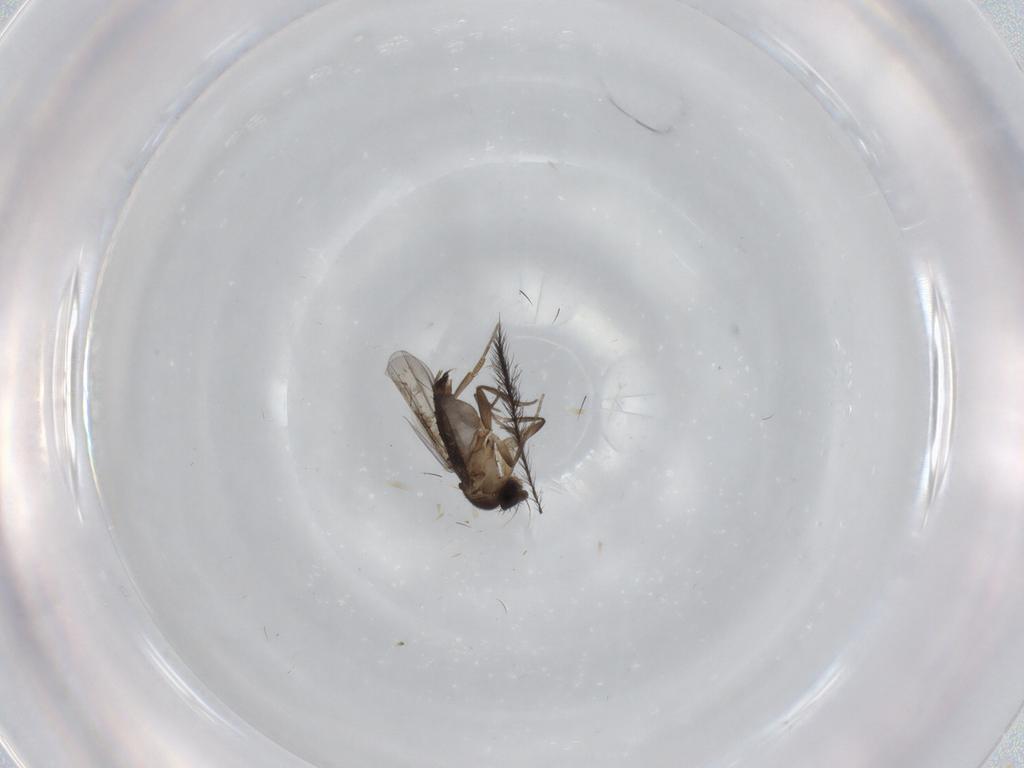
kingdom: Animalia
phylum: Arthropoda
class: Insecta
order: Diptera
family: Phoridae
